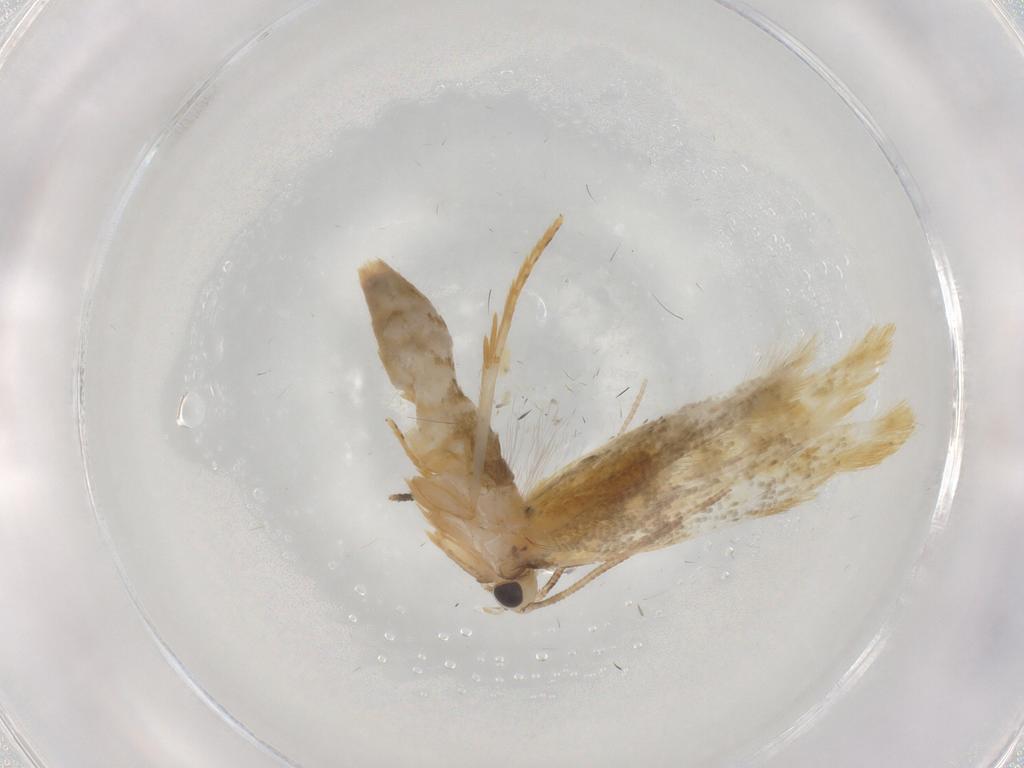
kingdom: Animalia
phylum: Arthropoda
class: Insecta
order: Lepidoptera
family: Tineidae
